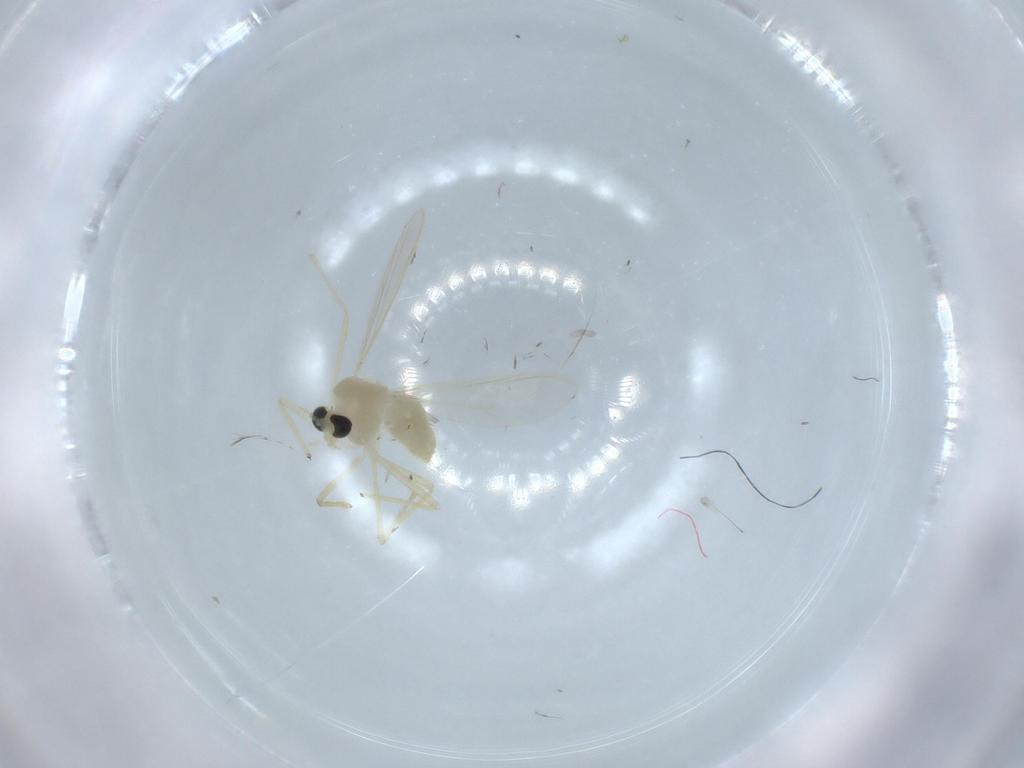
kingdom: Animalia
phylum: Arthropoda
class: Insecta
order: Diptera
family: Chironomidae
